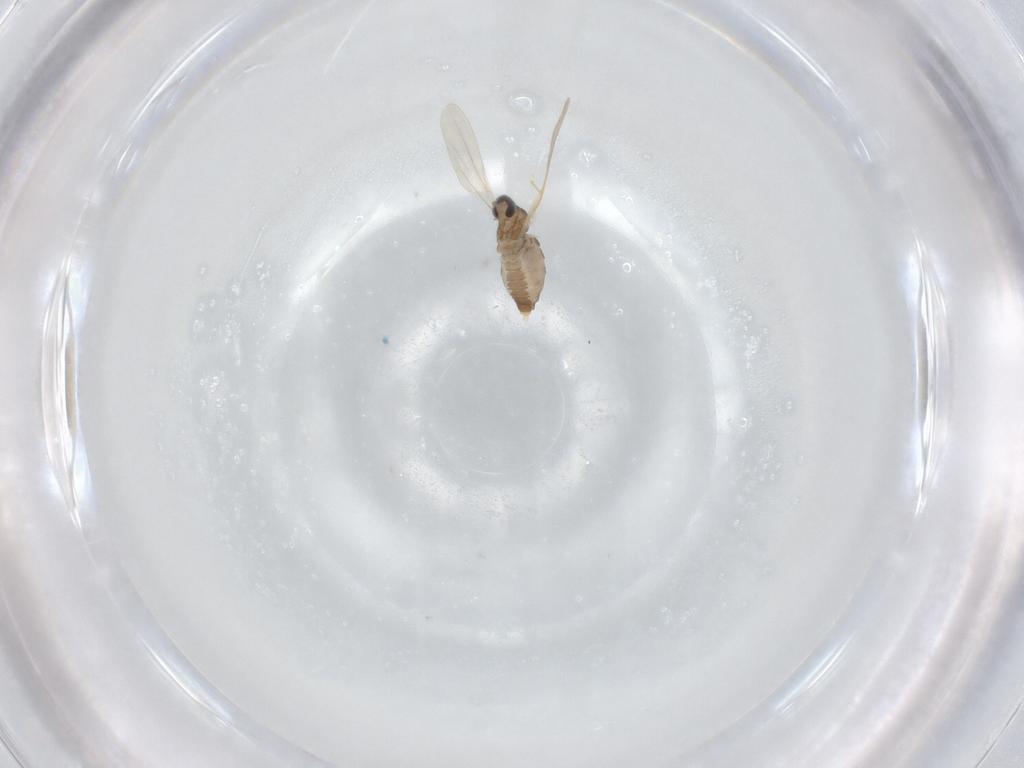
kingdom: Animalia
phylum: Arthropoda
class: Insecta
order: Diptera
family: Cecidomyiidae
